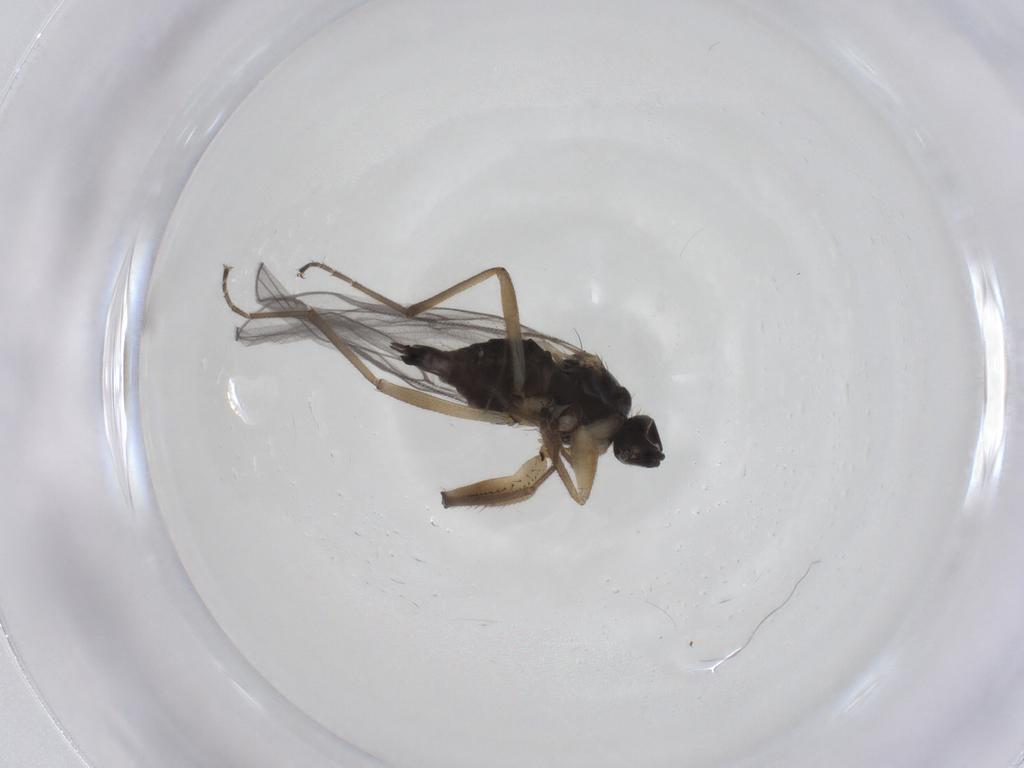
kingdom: Animalia
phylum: Arthropoda
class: Insecta
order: Diptera
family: Hybotidae
